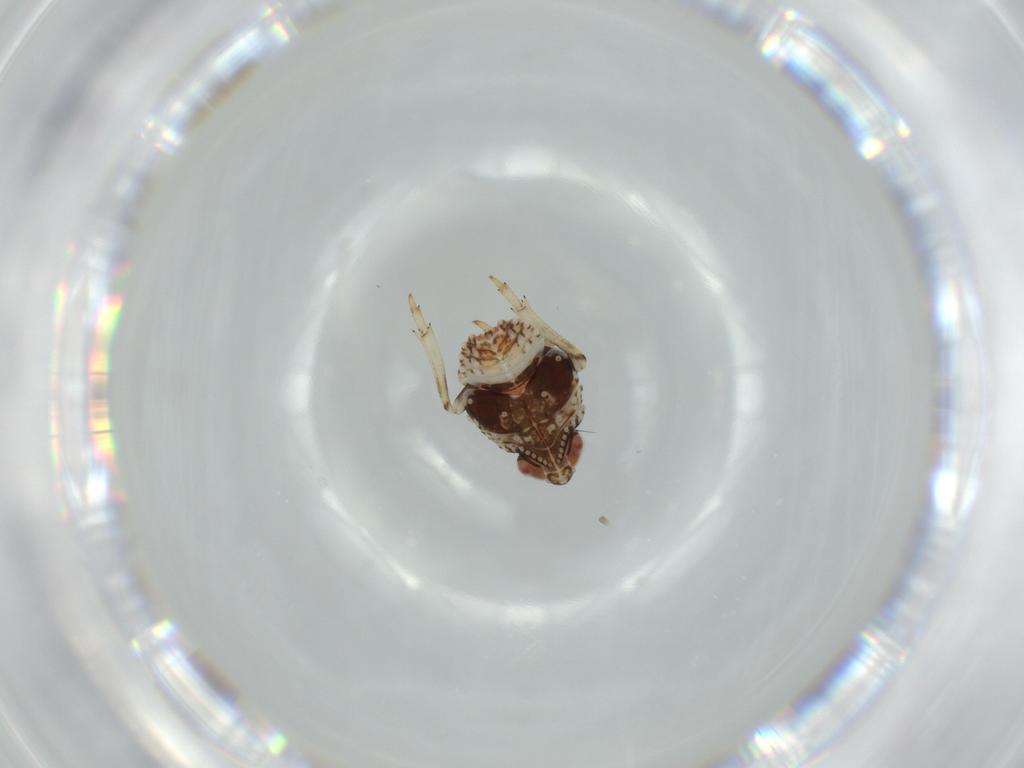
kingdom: Animalia
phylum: Arthropoda
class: Insecta
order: Hemiptera
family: Issidae
